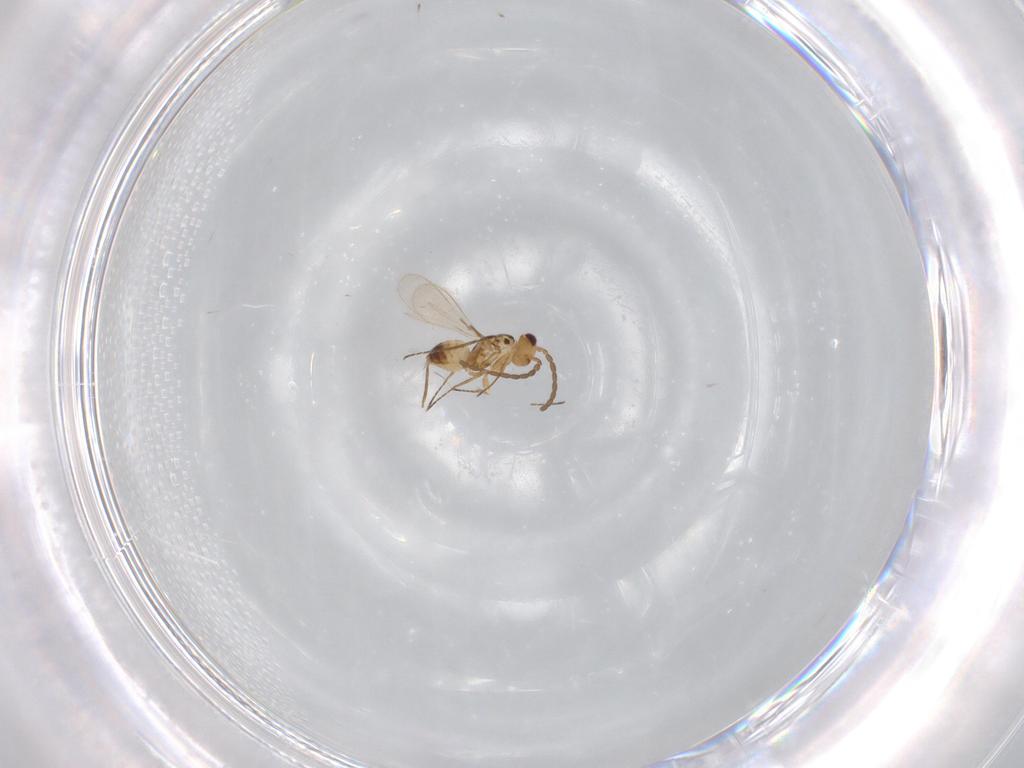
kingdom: Animalia
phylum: Arthropoda
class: Insecta
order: Hymenoptera
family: Mymaridae
